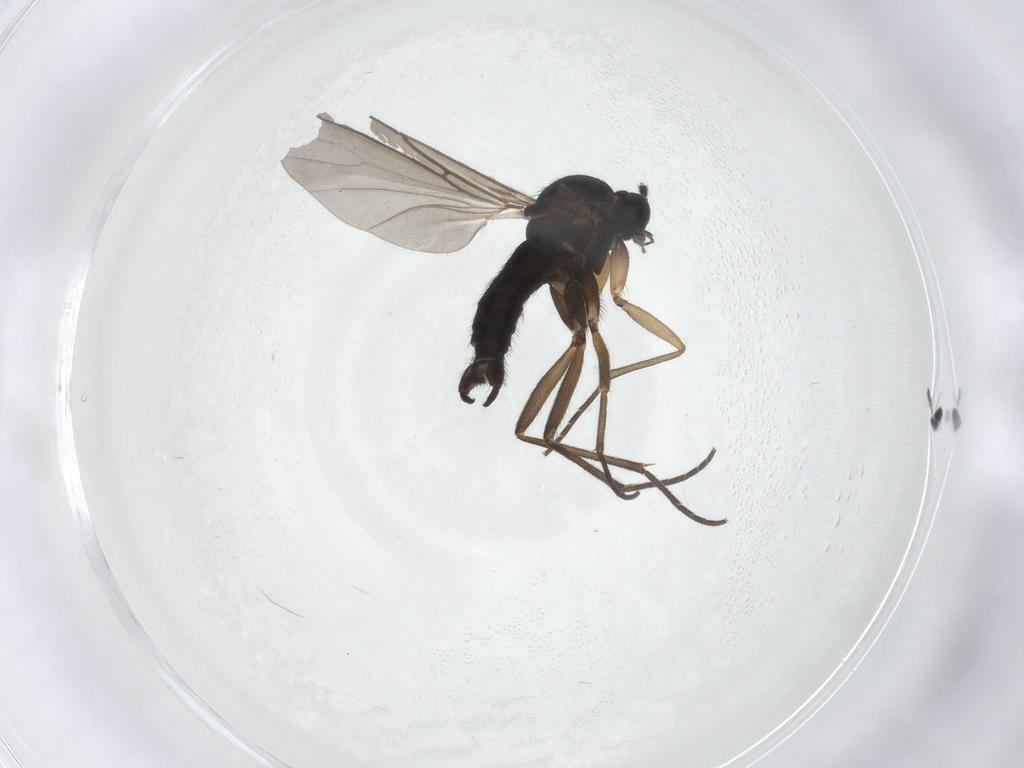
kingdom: Animalia
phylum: Arthropoda
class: Insecta
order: Diptera
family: Sciaridae
